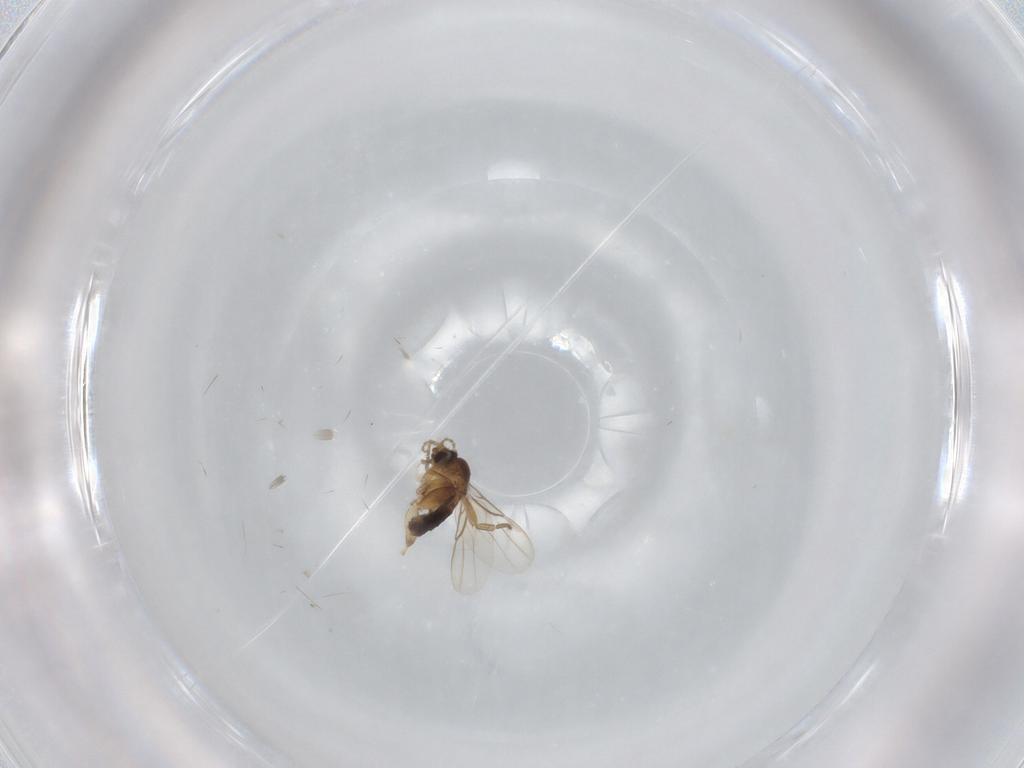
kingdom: Animalia
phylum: Arthropoda
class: Insecta
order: Diptera
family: Phoridae
